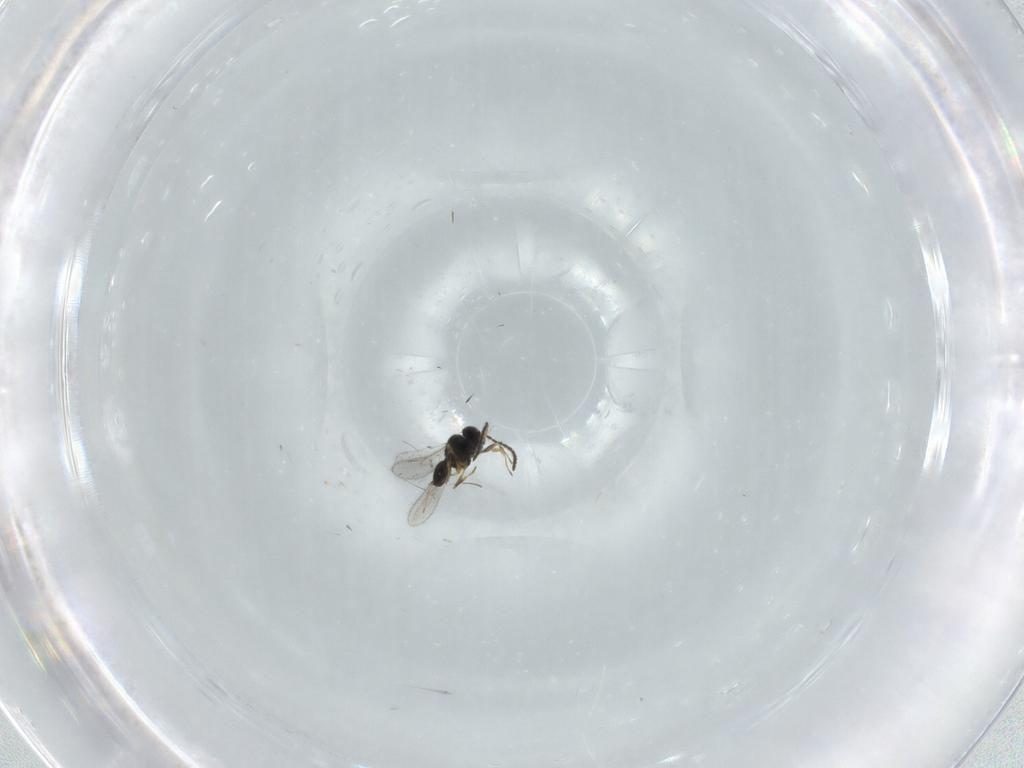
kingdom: Animalia
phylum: Arthropoda
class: Insecta
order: Hymenoptera
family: Scelionidae
